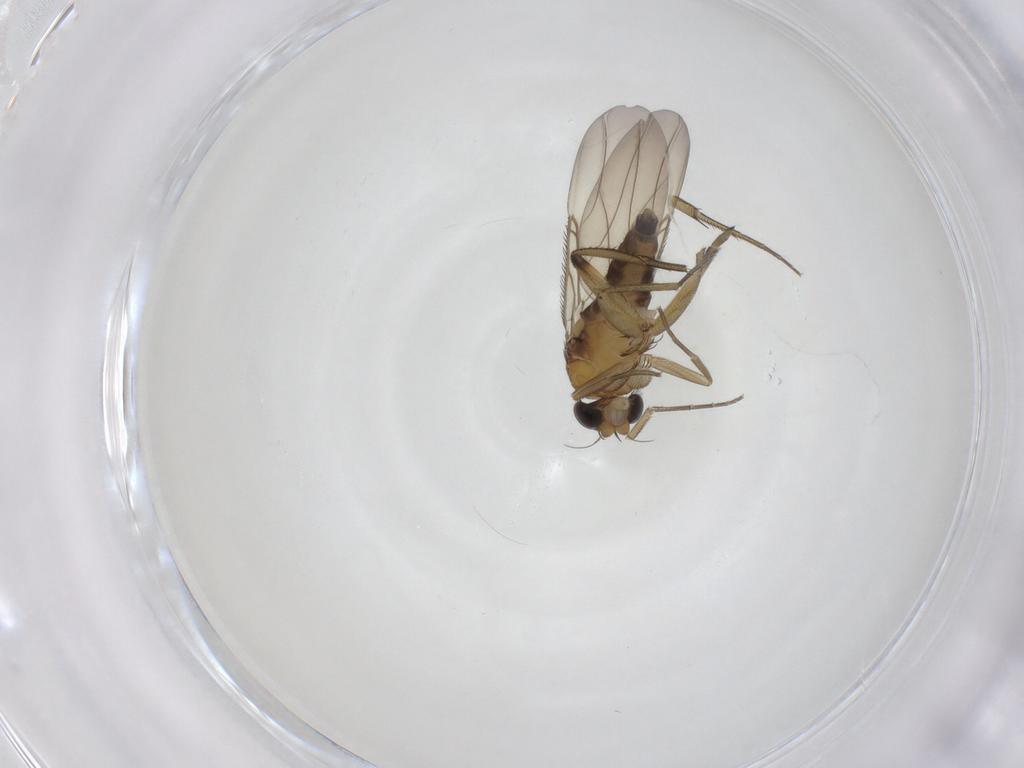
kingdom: Animalia
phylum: Arthropoda
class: Insecta
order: Diptera
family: Phoridae
